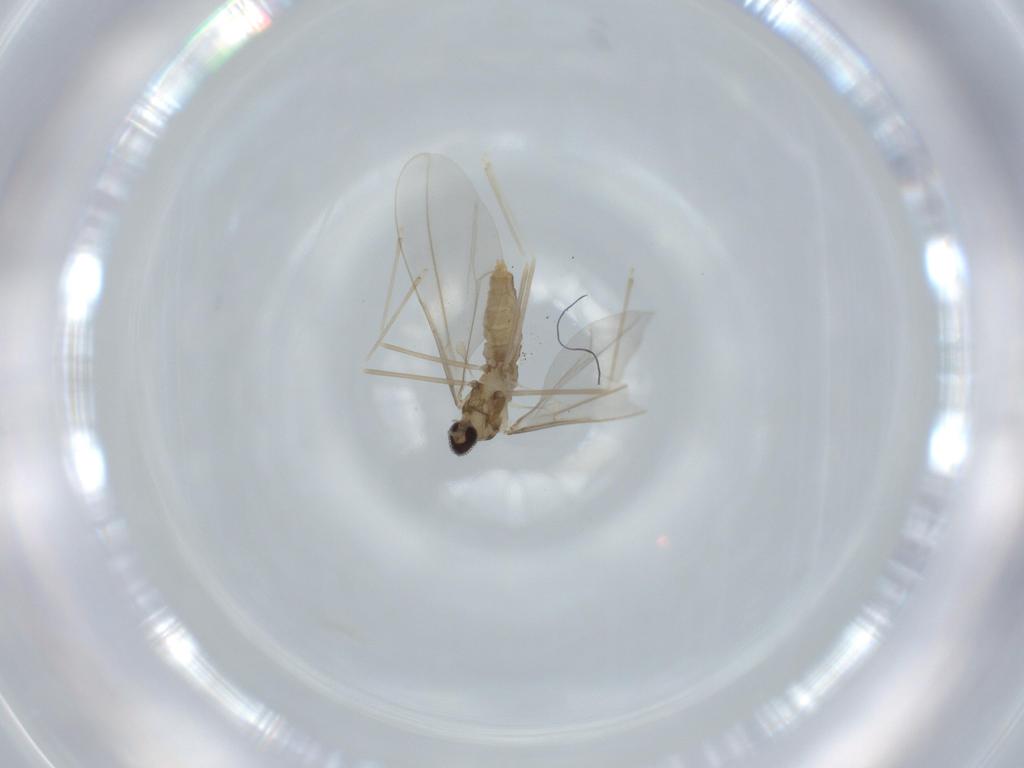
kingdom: Animalia
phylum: Arthropoda
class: Insecta
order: Diptera
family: Cecidomyiidae
